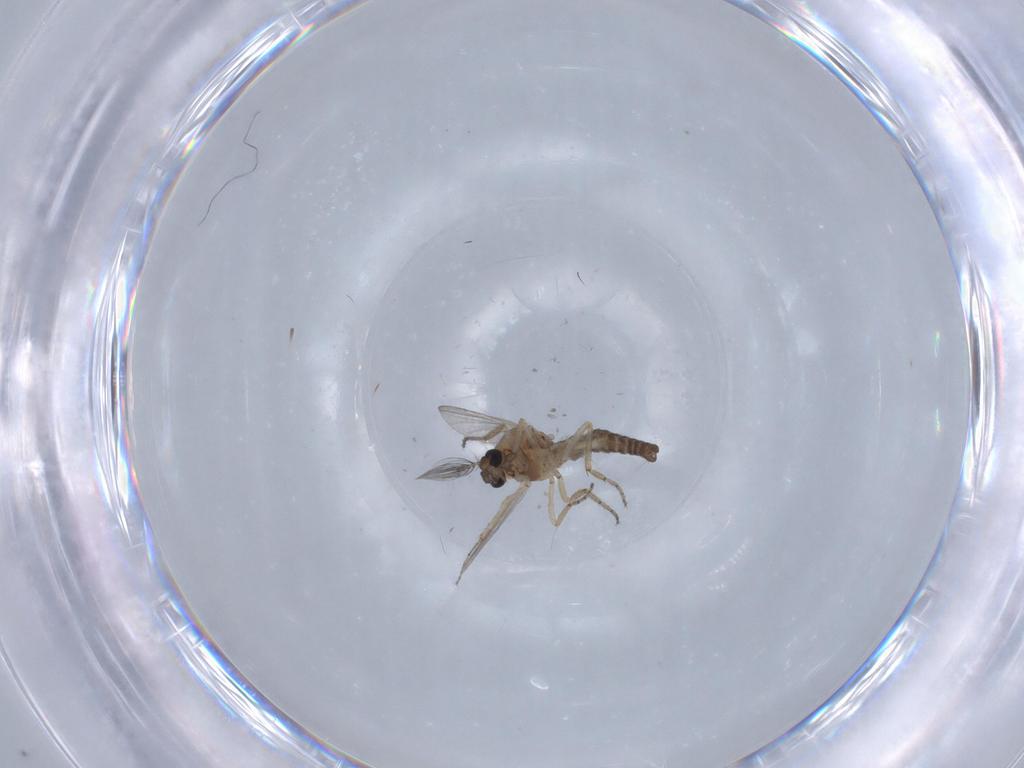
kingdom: Animalia
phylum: Arthropoda
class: Insecta
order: Diptera
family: Ceratopogonidae
